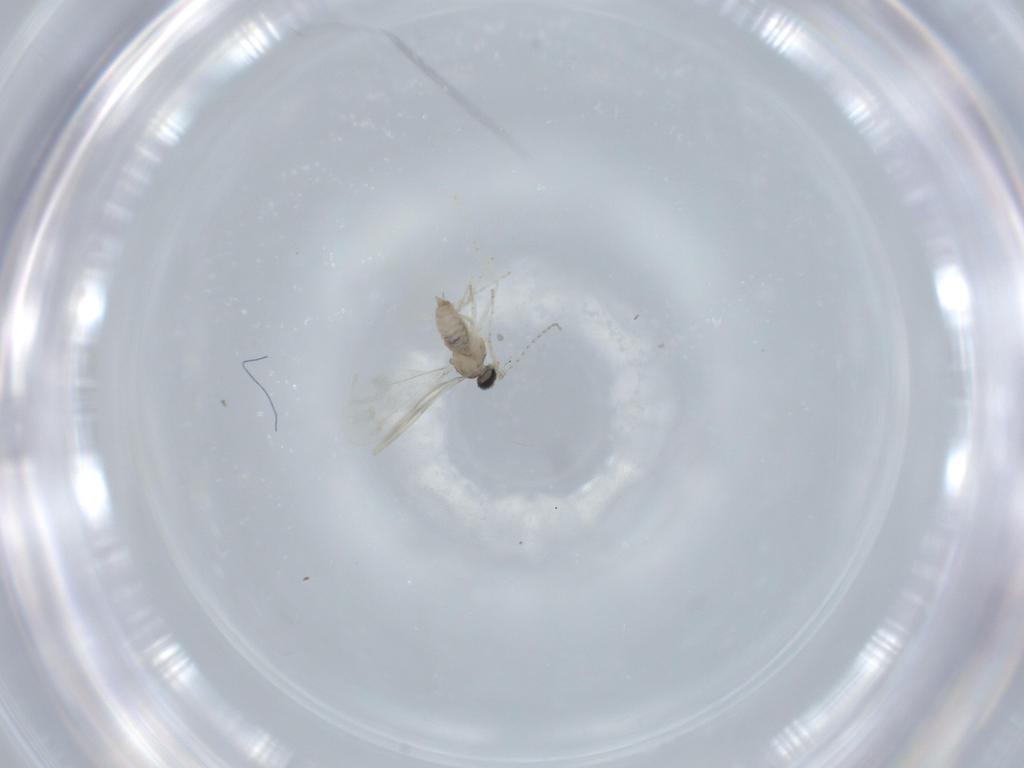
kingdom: Animalia
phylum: Arthropoda
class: Insecta
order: Diptera
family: Cecidomyiidae
